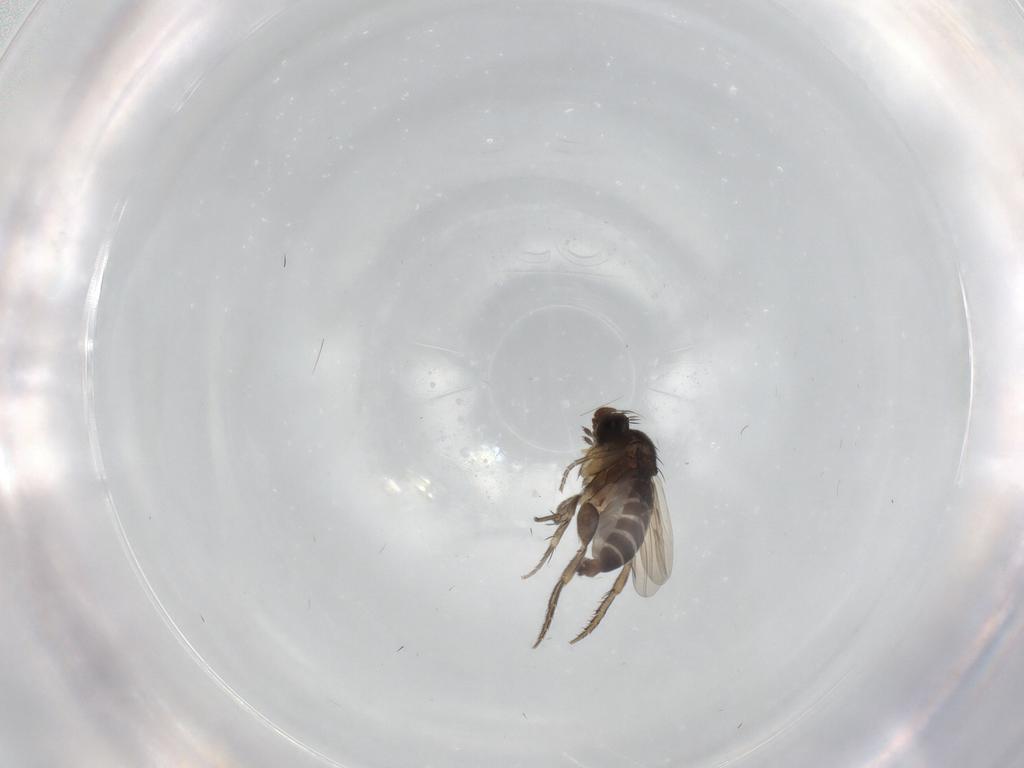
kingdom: Animalia
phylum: Arthropoda
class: Insecta
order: Diptera
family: Phoridae
